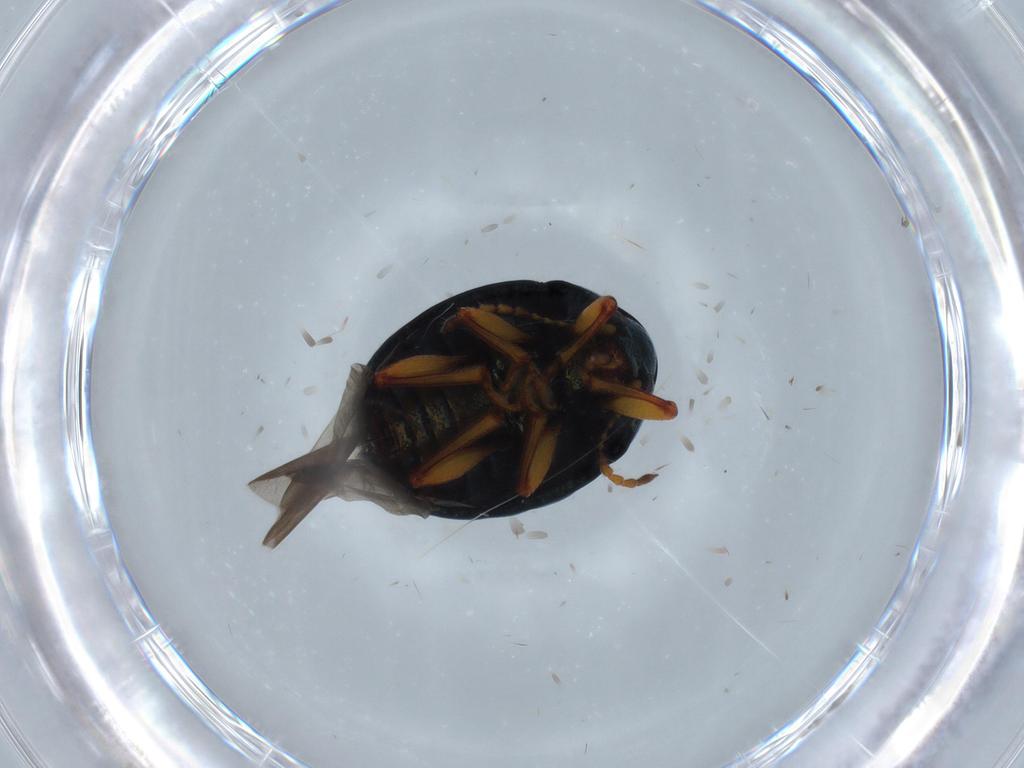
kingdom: Animalia
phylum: Arthropoda
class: Insecta
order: Coleoptera
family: Chrysomelidae
